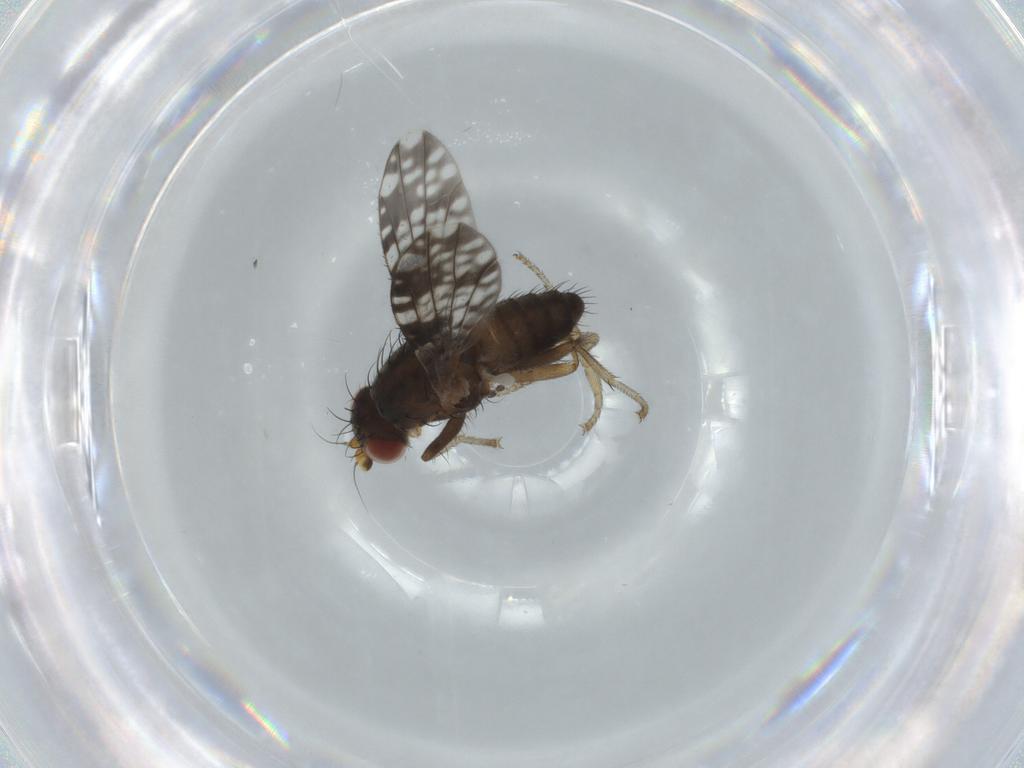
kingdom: Animalia
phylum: Arthropoda
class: Insecta
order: Diptera
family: Tephritidae
